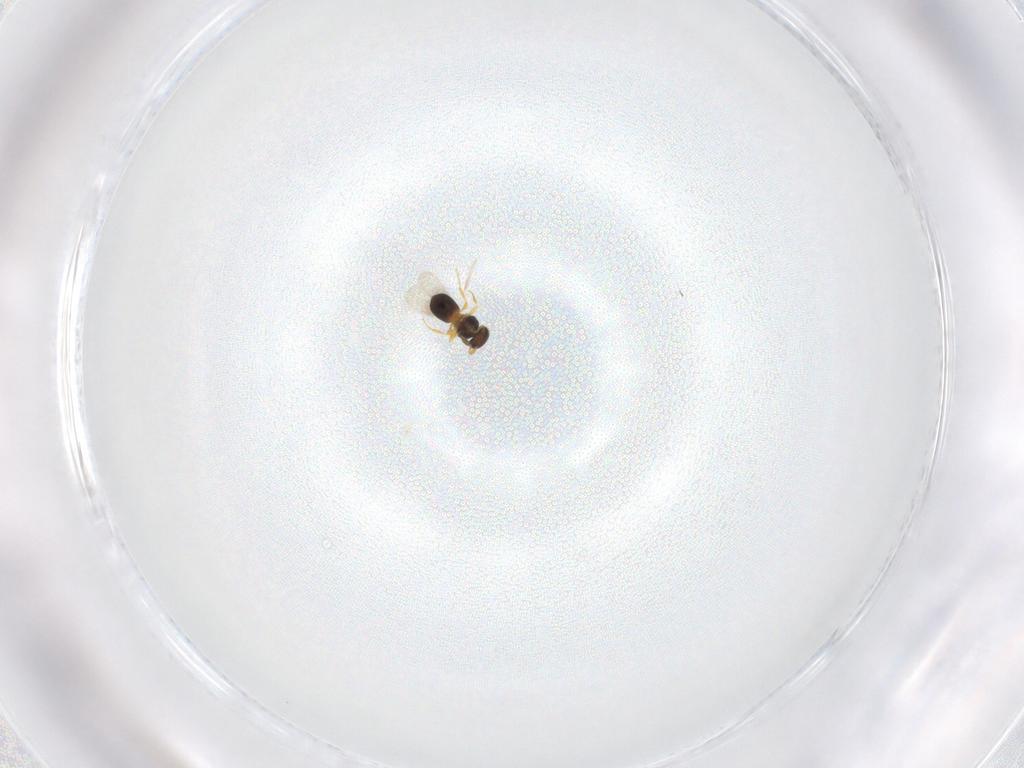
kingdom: Animalia
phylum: Arthropoda
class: Insecta
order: Hymenoptera
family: Platygastridae
